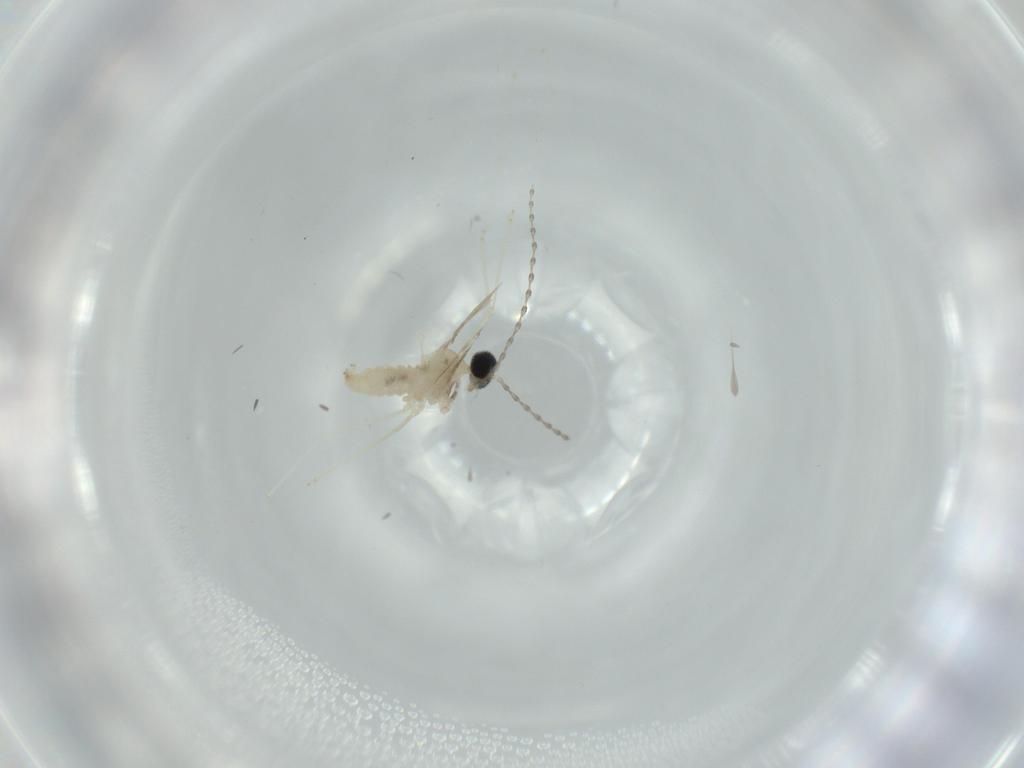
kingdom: Animalia
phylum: Arthropoda
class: Insecta
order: Diptera
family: Cecidomyiidae
